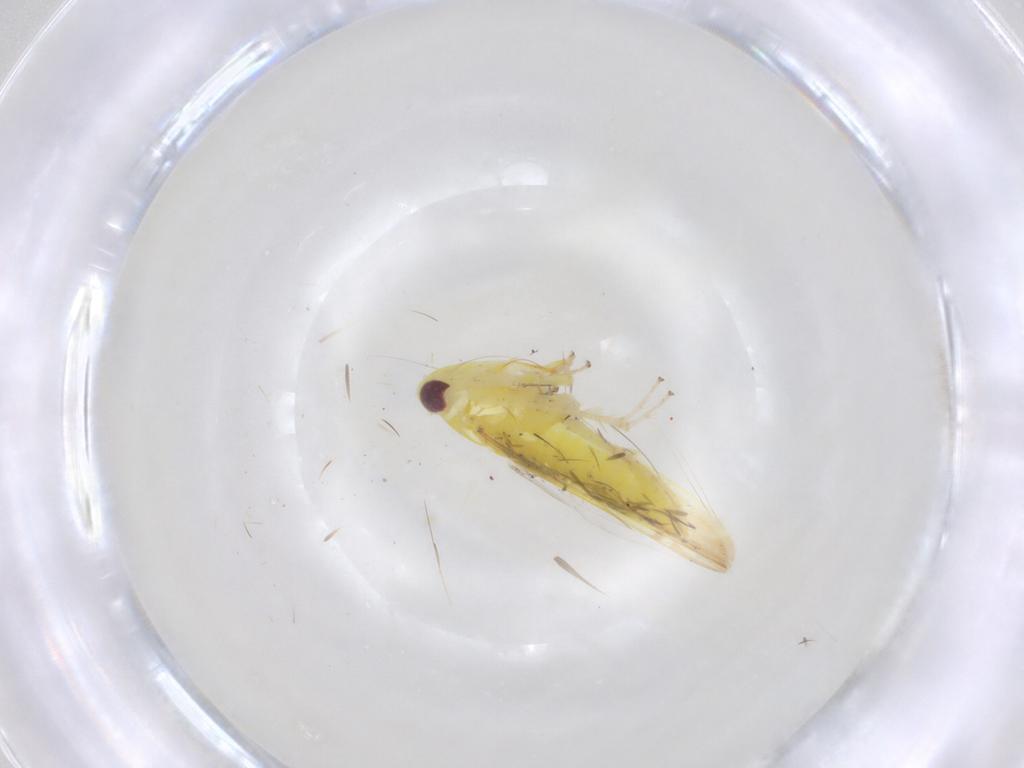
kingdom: Animalia
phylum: Arthropoda
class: Insecta
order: Hemiptera
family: Cicadellidae
